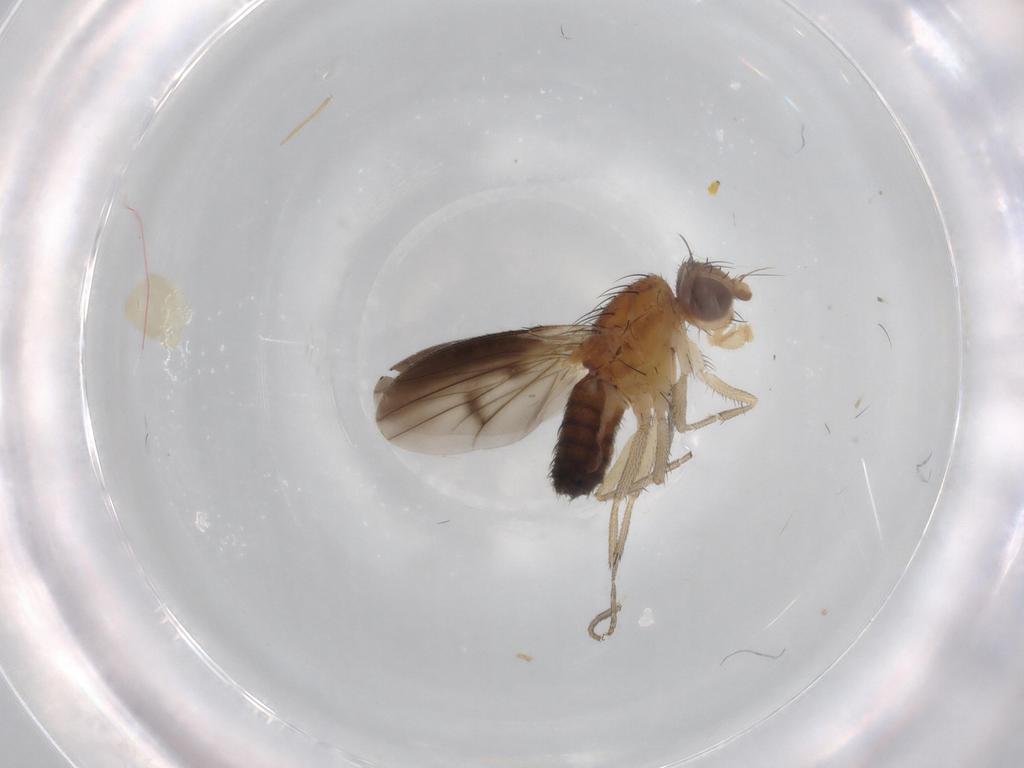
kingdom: Animalia
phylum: Arthropoda
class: Insecta
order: Diptera
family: Heleomyzidae
